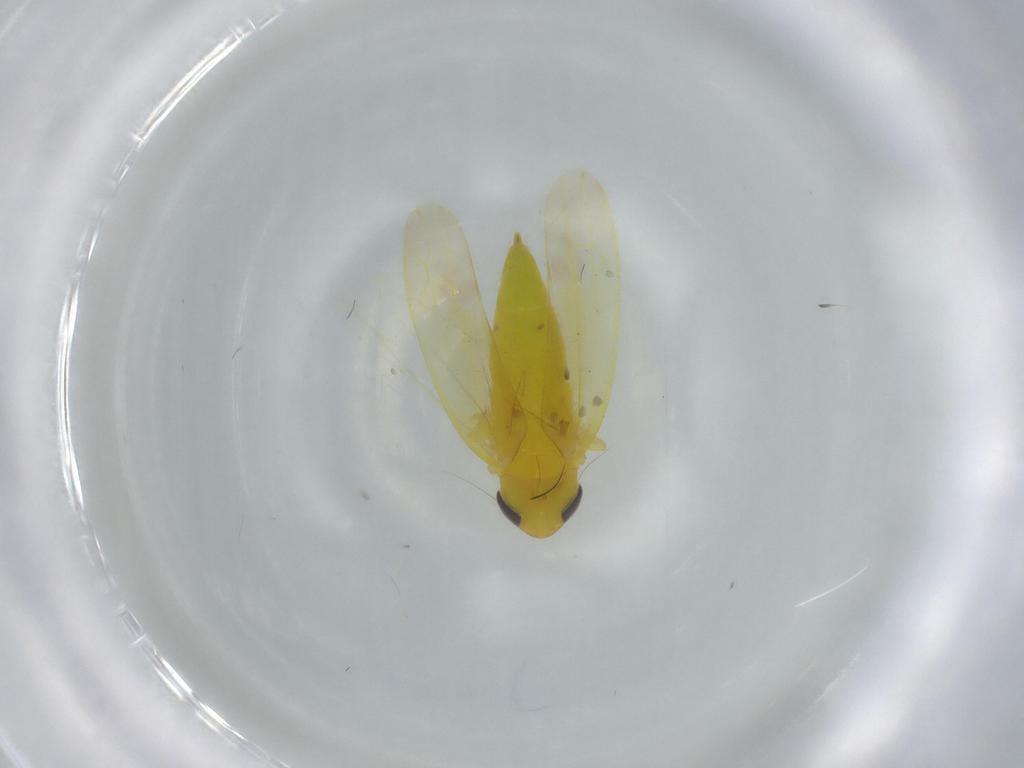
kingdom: Animalia
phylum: Arthropoda
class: Insecta
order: Hemiptera
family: Cicadellidae
